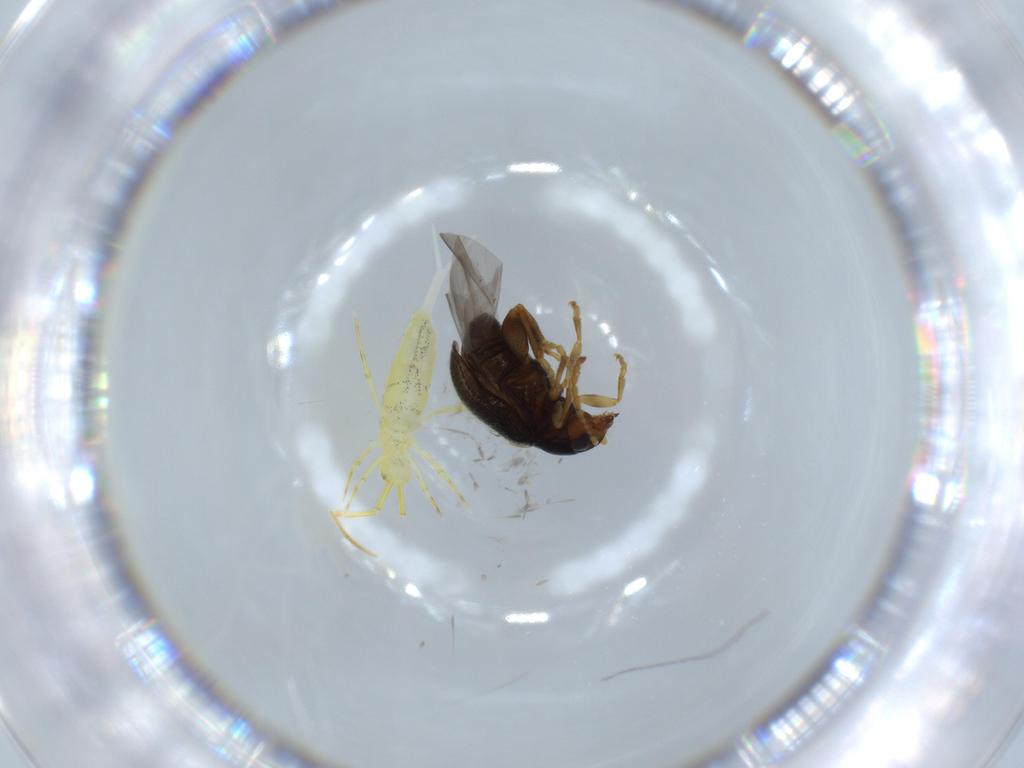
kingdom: Animalia
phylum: Arthropoda
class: Collembola
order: Entomobryomorpha
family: Paronellidae
